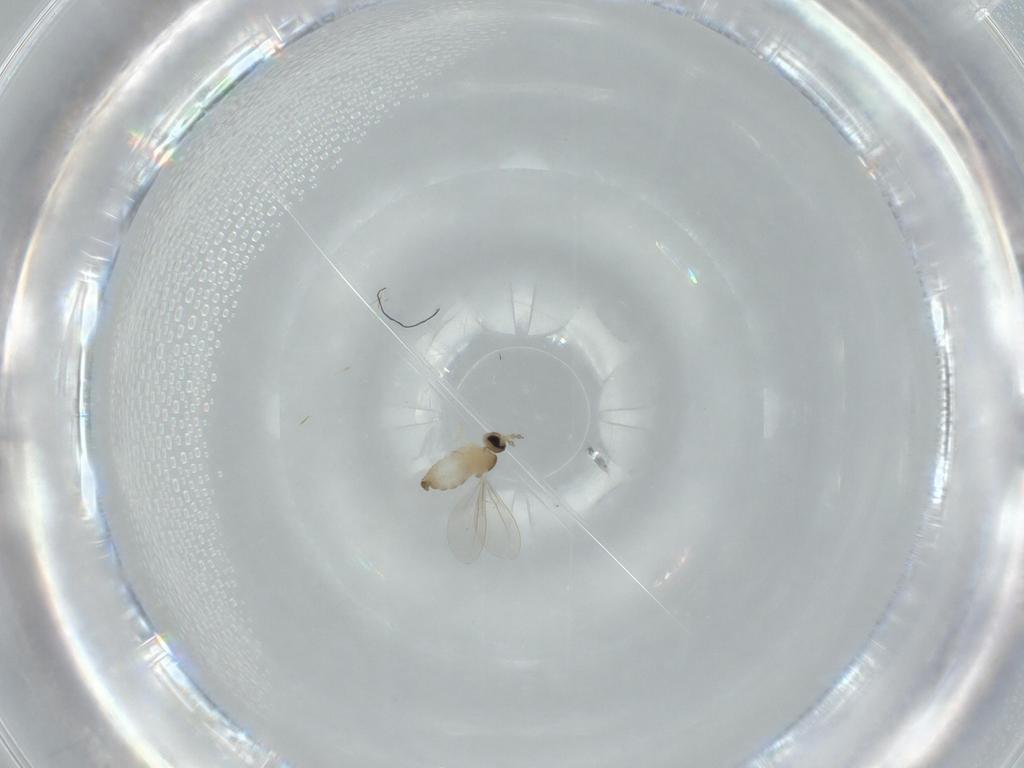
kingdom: Animalia
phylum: Arthropoda
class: Insecta
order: Diptera
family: Cecidomyiidae
